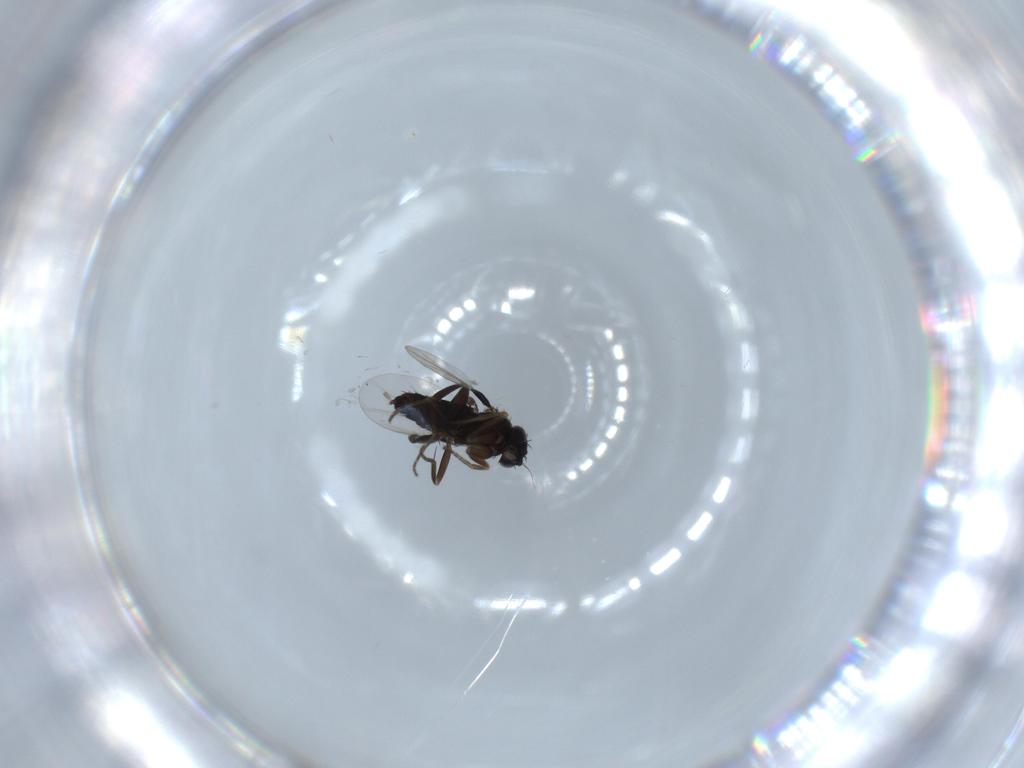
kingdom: Animalia
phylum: Arthropoda
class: Insecta
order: Diptera
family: Phoridae
